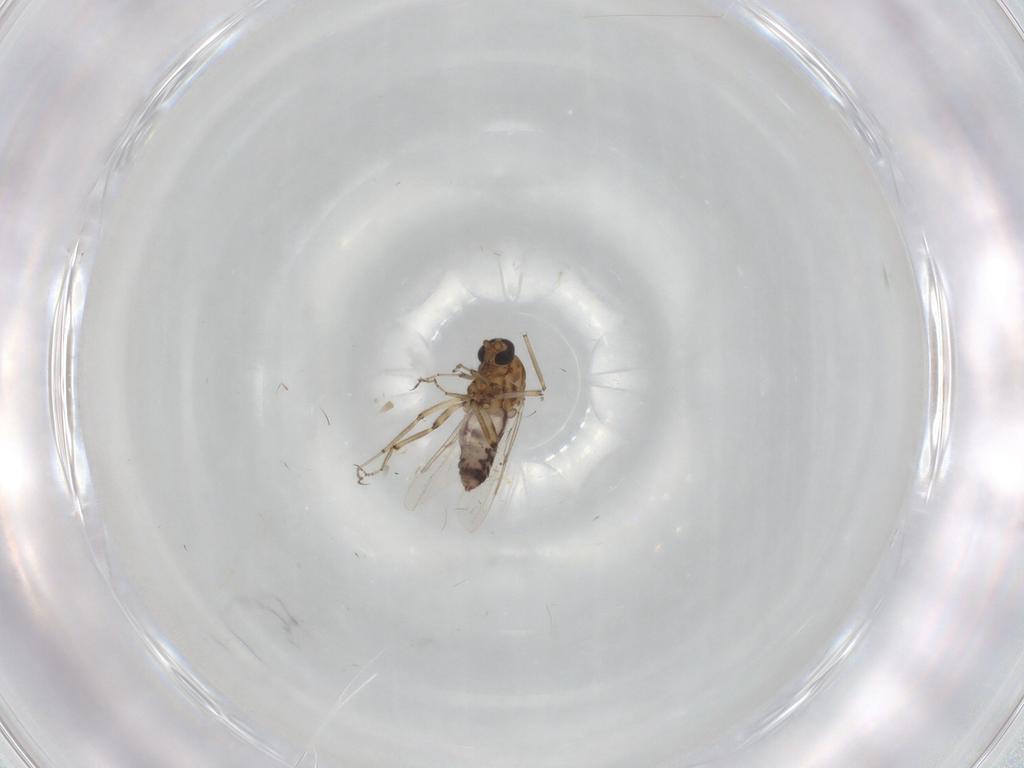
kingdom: Animalia
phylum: Arthropoda
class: Insecta
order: Diptera
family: Ceratopogonidae
